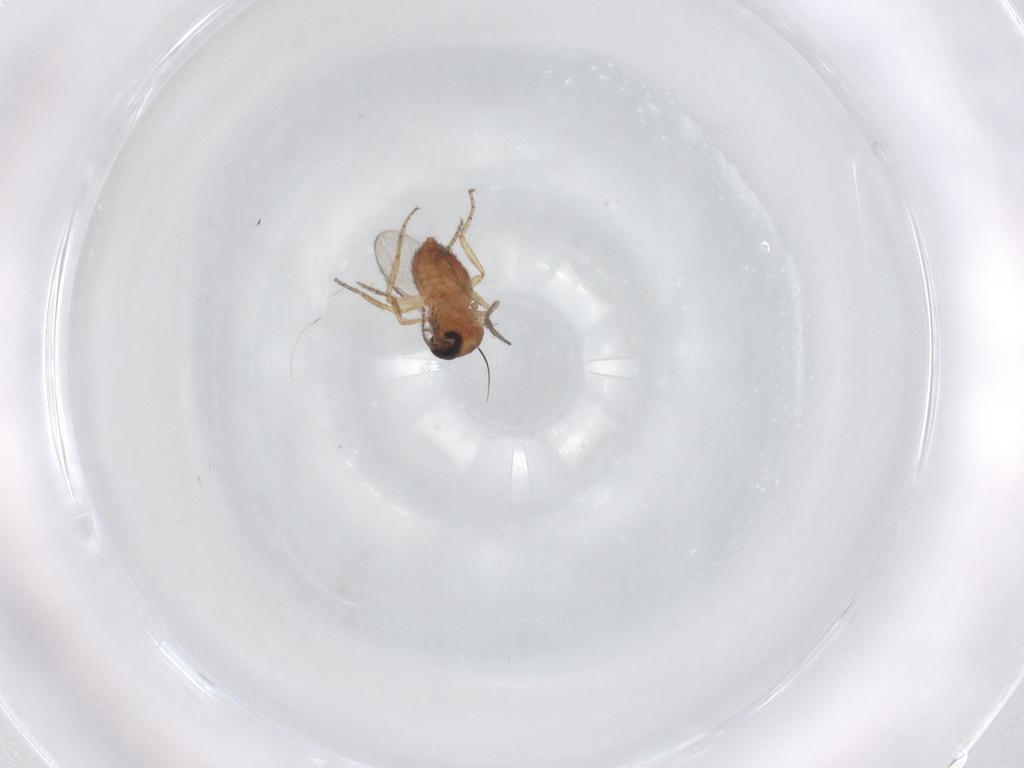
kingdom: Animalia
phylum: Arthropoda
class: Insecta
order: Diptera
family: Ceratopogonidae
